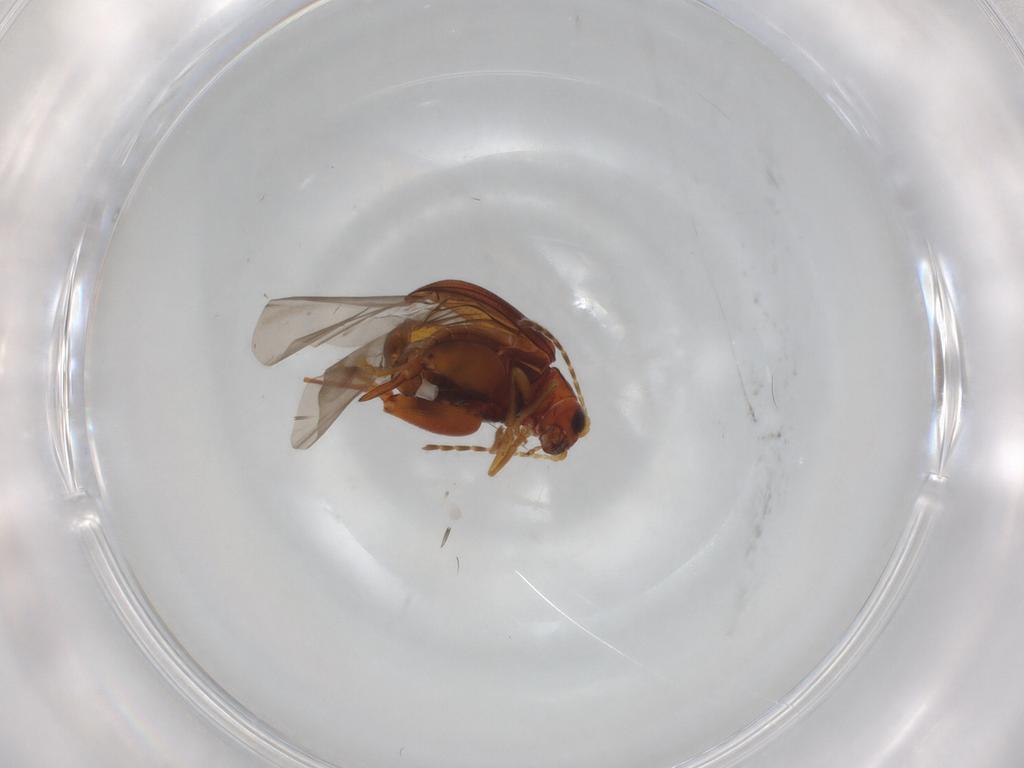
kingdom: Animalia
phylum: Arthropoda
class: Insecta
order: Coleoptera
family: Chrysomelidae
